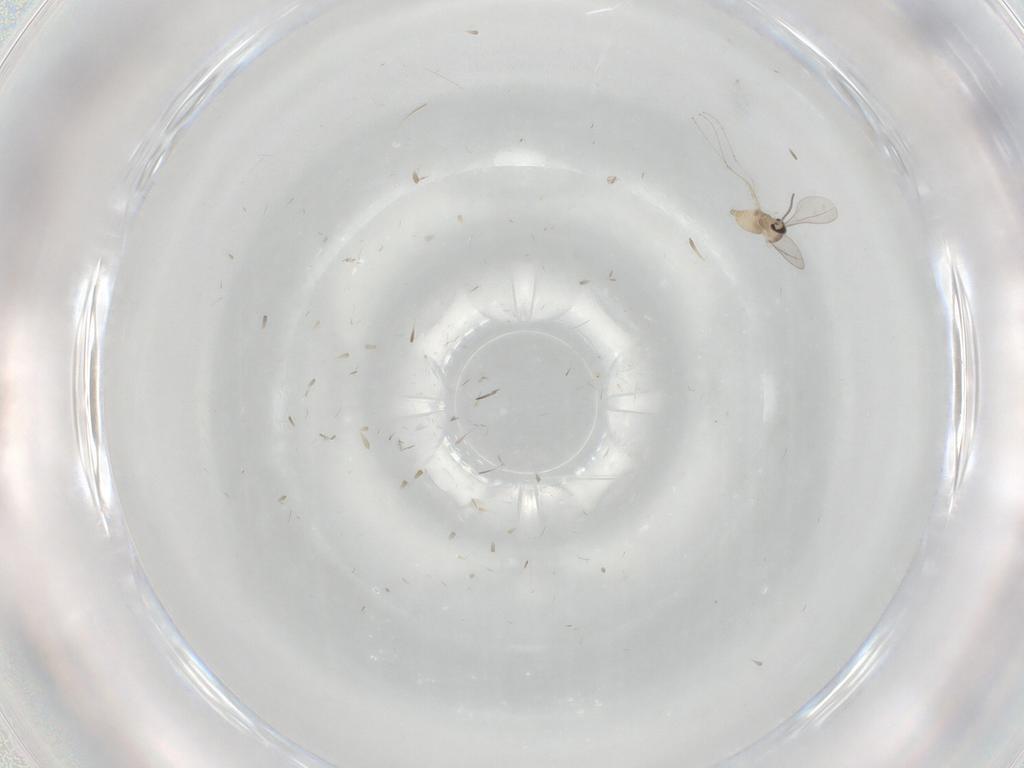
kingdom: Animalia
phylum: Arthropoda
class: Insecta
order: Diptera
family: Cecidomyiidae
